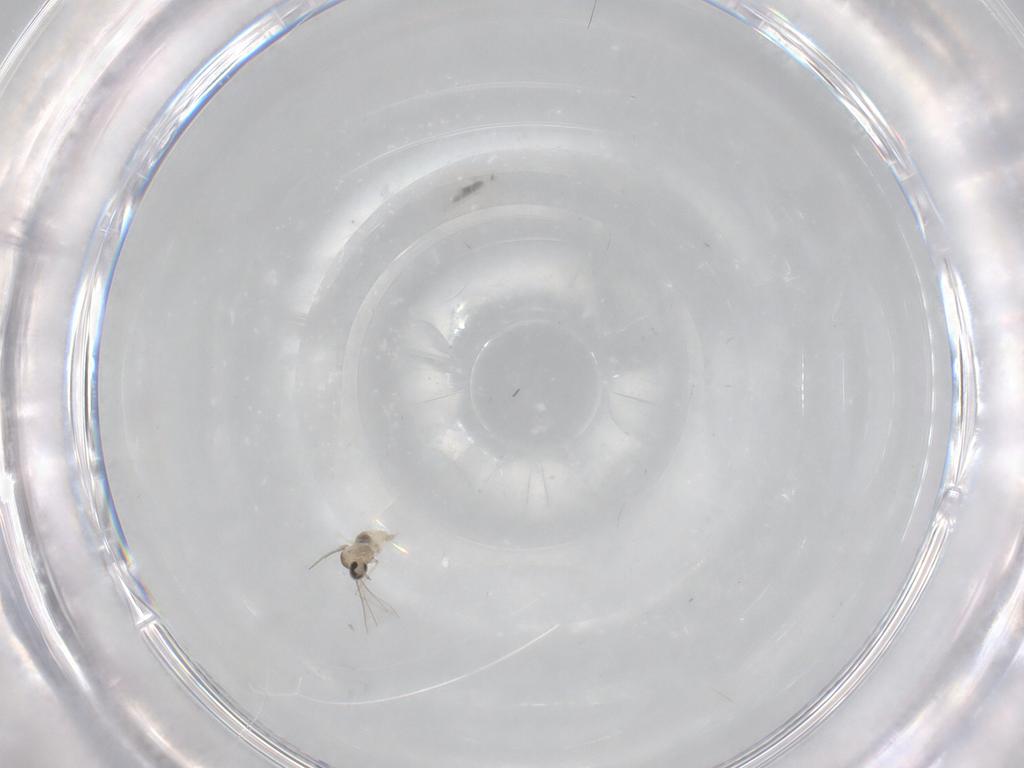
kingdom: Animalia
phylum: Arthropoda
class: Insecta
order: Diptera
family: Cecidomyiidae
